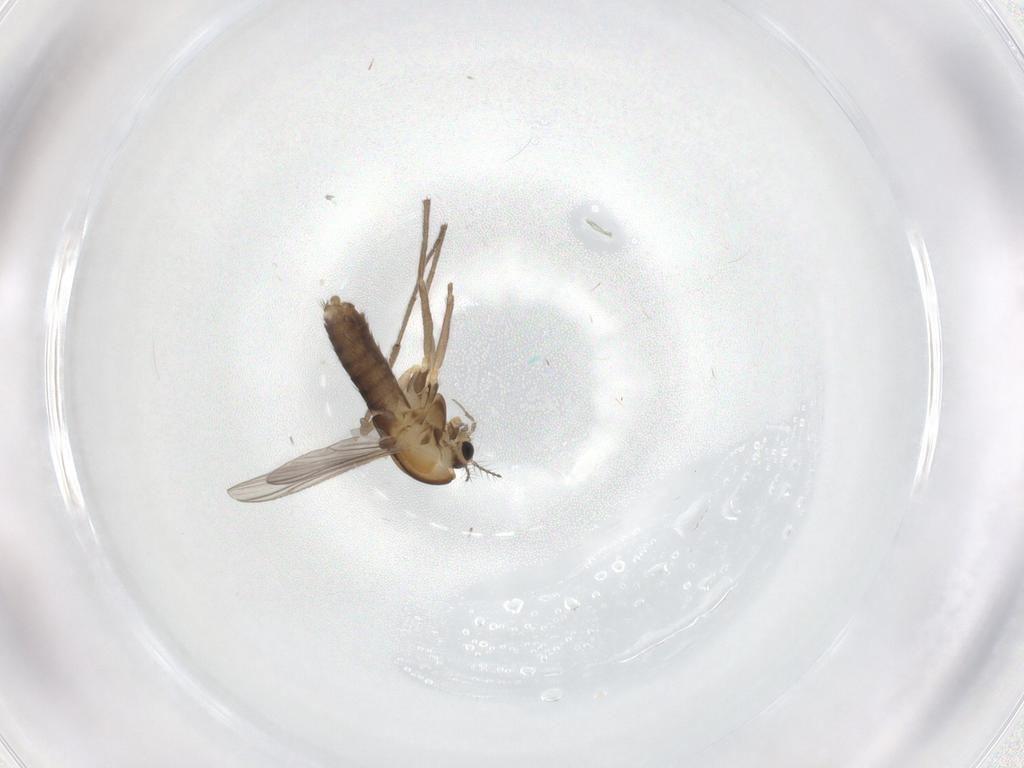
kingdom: Animalia
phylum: Arthropoda
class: Insecta
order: Diptera
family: Chironomidae
